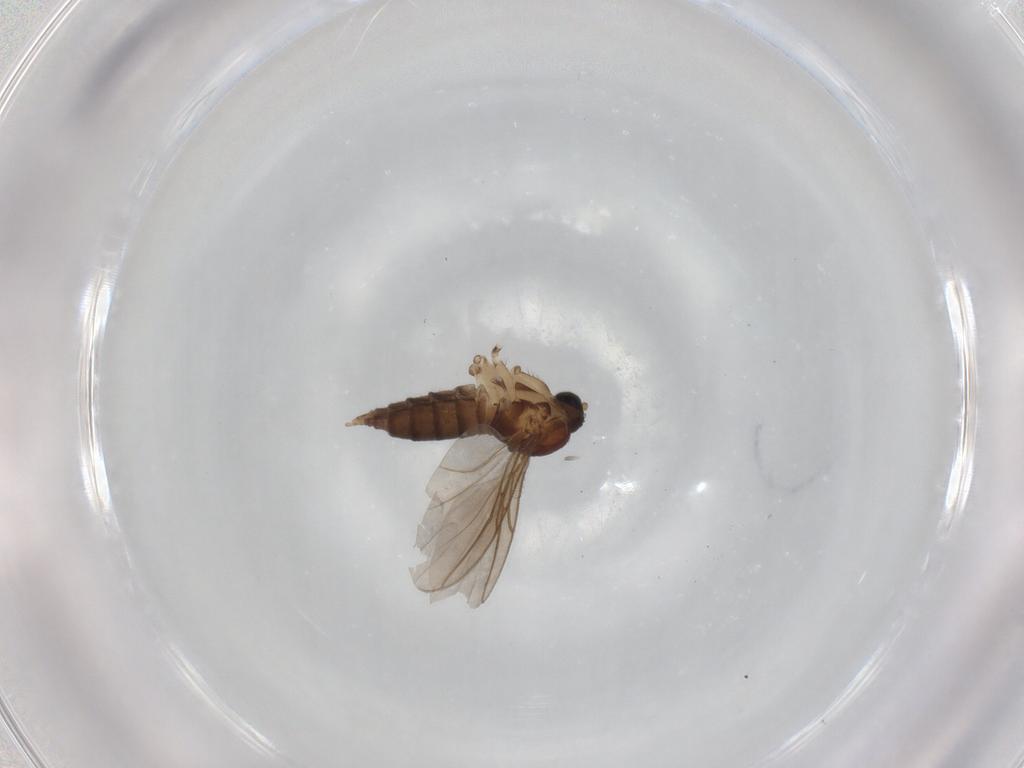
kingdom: Animalia
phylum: Arthropoda
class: Insecta
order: Diptera
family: Sciaridae
